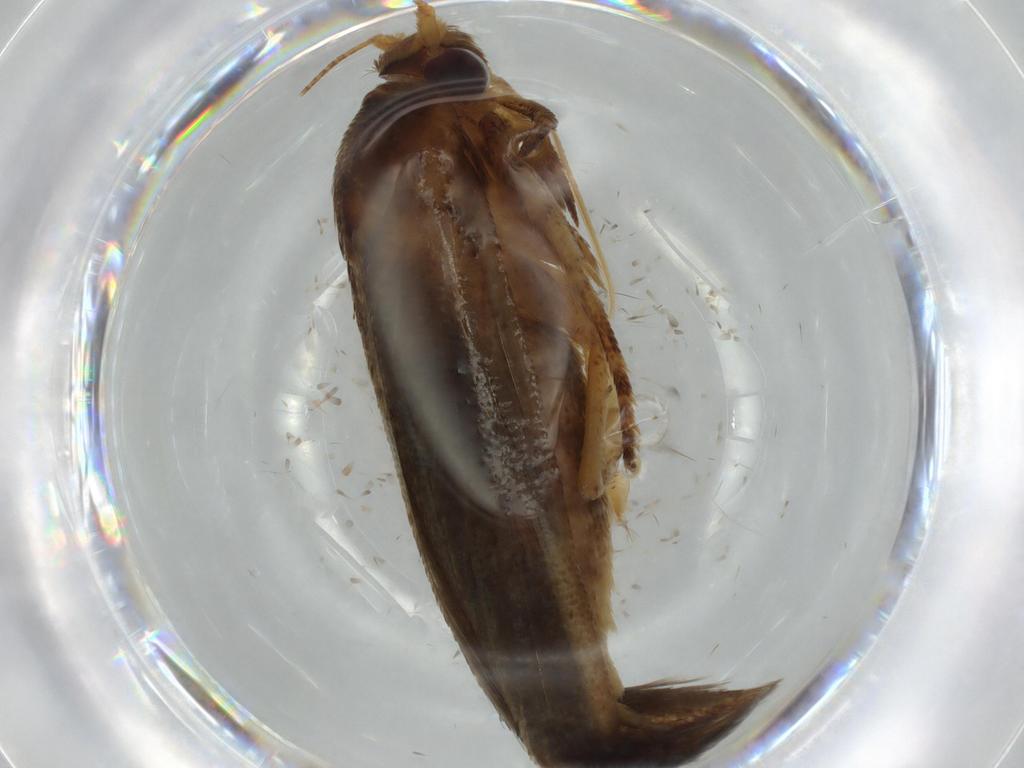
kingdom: Animalia
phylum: Arthropoda
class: Insecta
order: Lepidoptera
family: Blastobasidae
